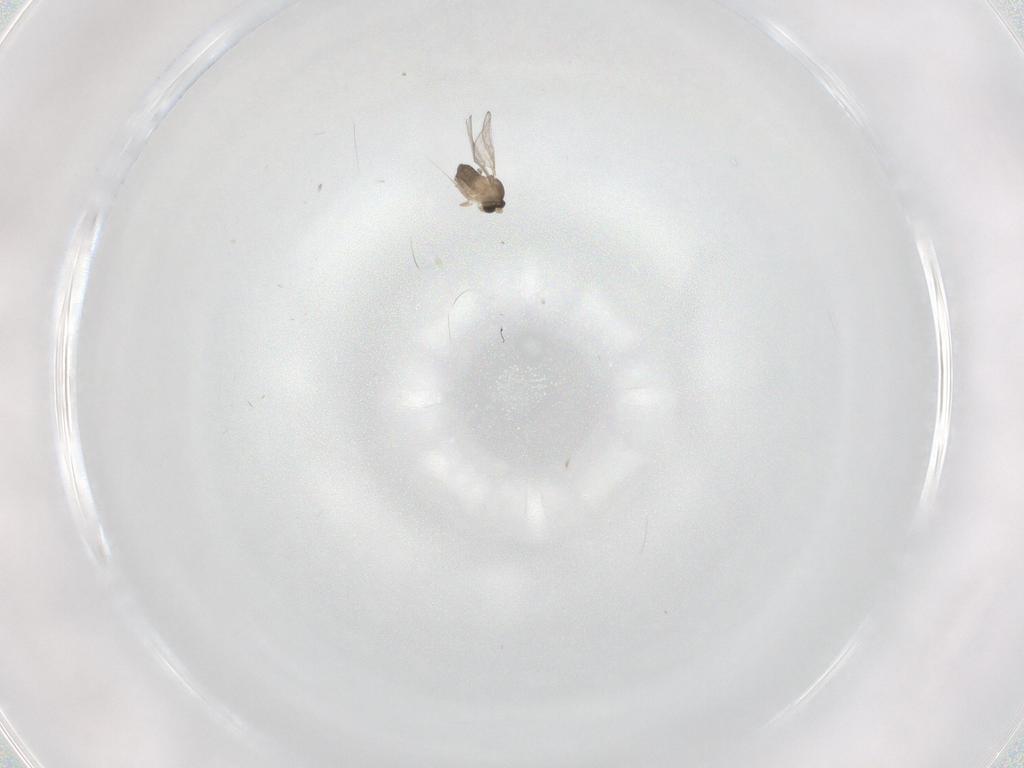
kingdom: Animalia
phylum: Arthropoda
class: Insecta
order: Diptera
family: Cecidomyiidae
